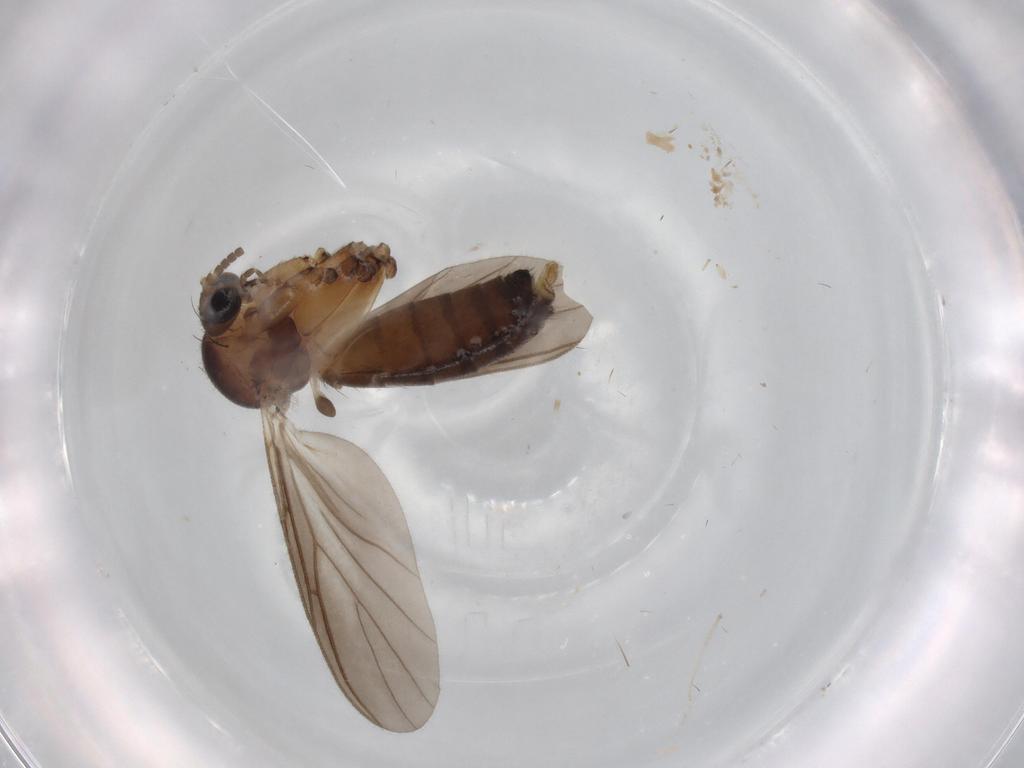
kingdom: Animalia
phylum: Arthropoda
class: Insecta
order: Diptera
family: Mycetophilidae
